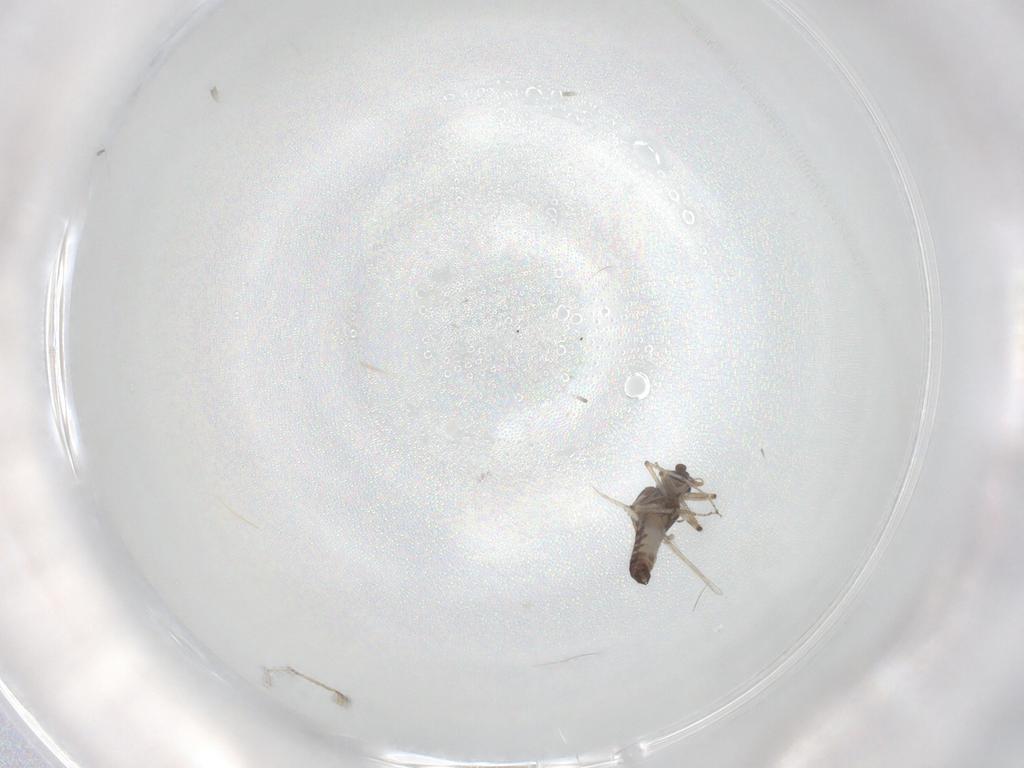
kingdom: Animalia
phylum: Arthropoda
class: Insecta
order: Diptera
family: Ceratopogonidae
